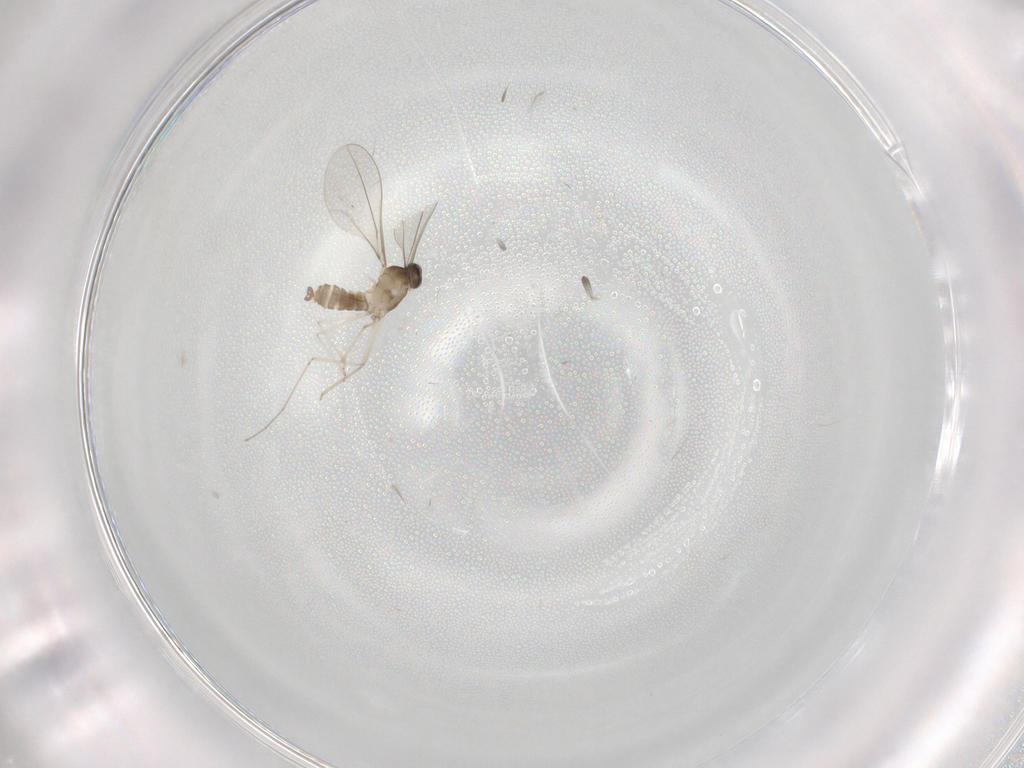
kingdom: Animalia
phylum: Arthropoda
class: Insecta
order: Diptera
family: Cecidomyiidae
